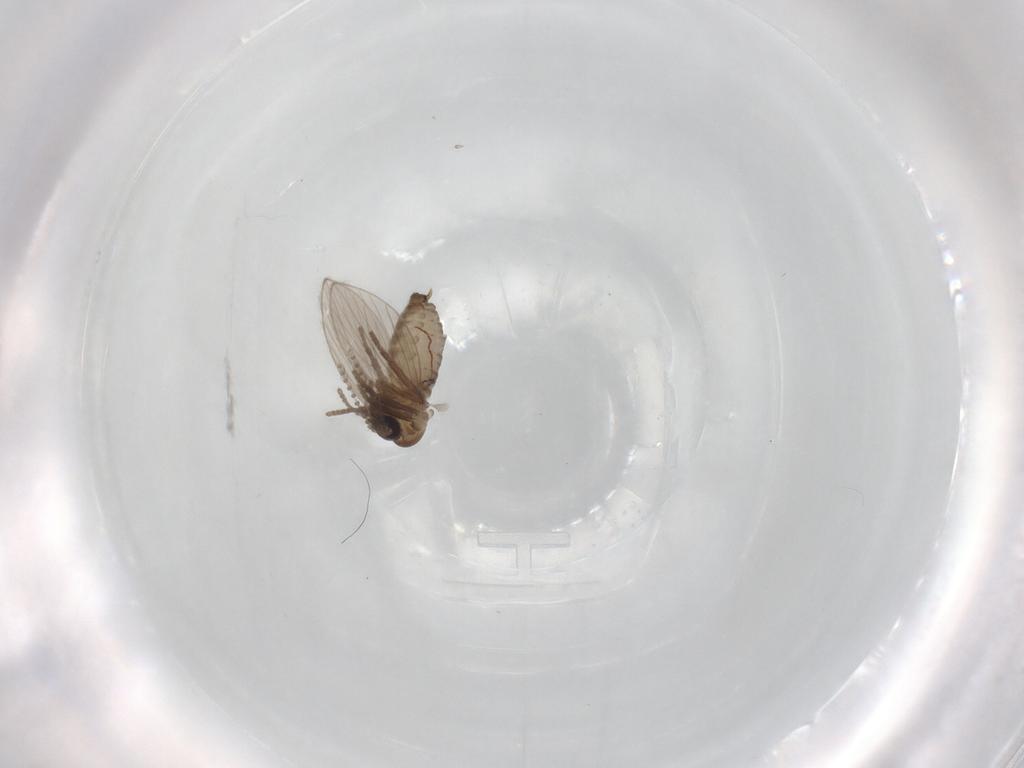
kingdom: Animalia
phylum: Arthropoda
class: Insecta
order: Diptera
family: Psychodidae
